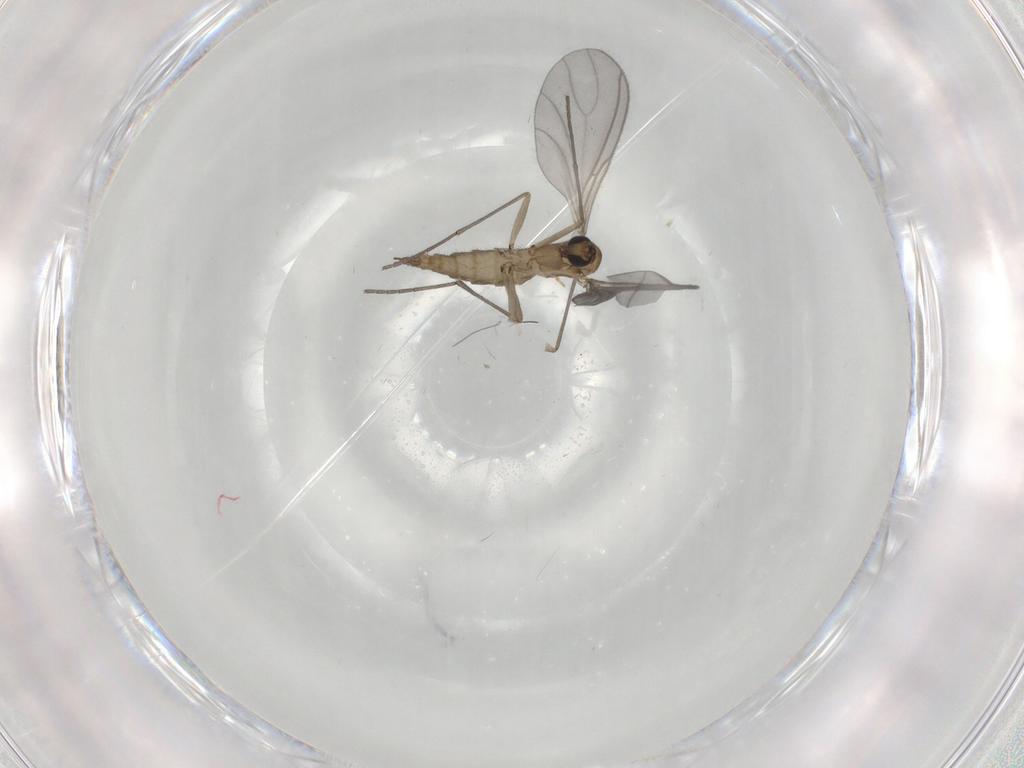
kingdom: Animalia
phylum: Arthropoda
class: Insecta
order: Diptera
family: Sciaridae
